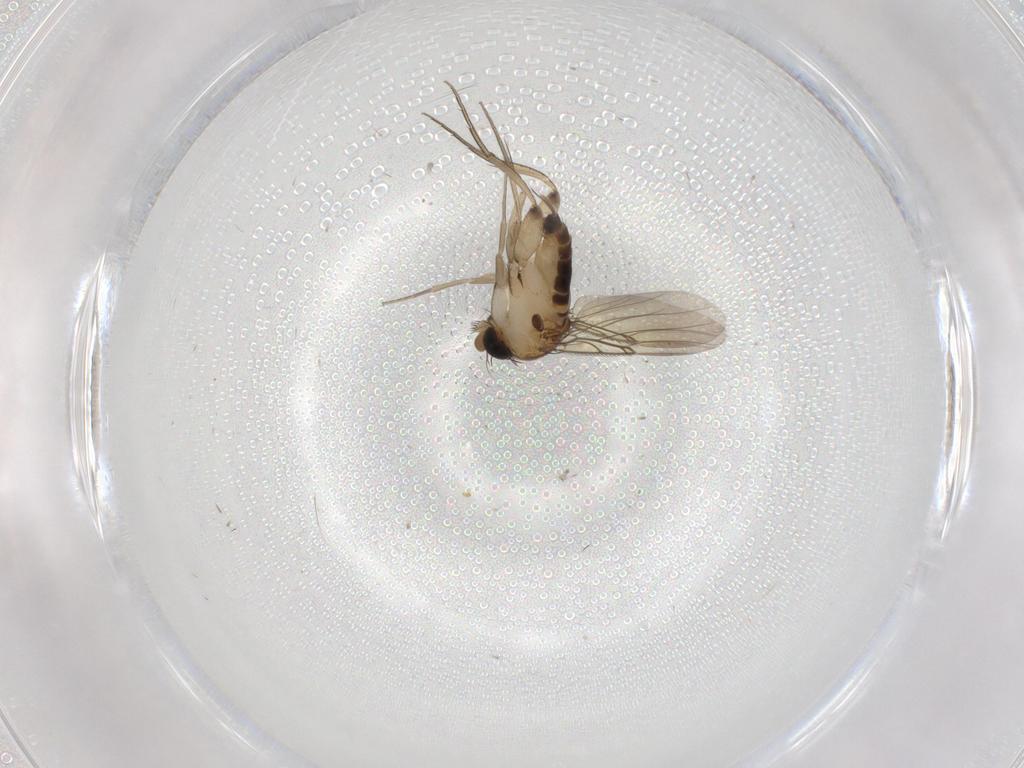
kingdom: Animalia
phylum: Arthropoda
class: Insecta
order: Diptera
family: Phoridae
